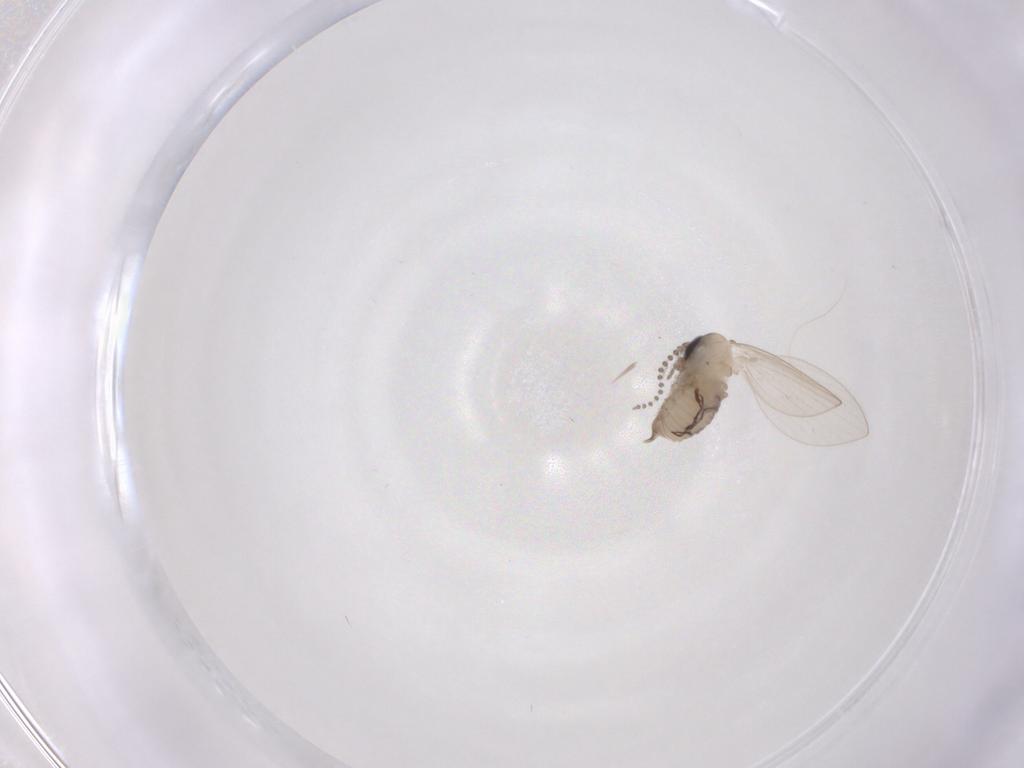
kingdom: Animalia
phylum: Arthropoda
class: Insecta
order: Diptera
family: Psychodidae
